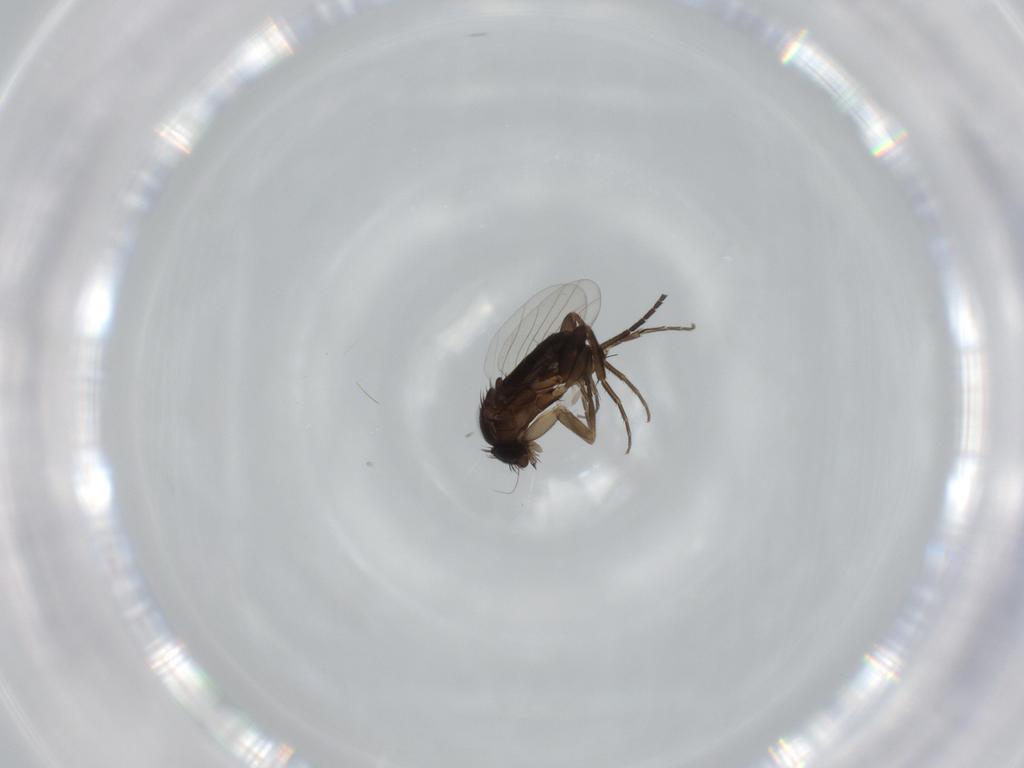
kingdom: Animalia
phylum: Arthropoda
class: Insecta
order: Diptera
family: Phoridae
